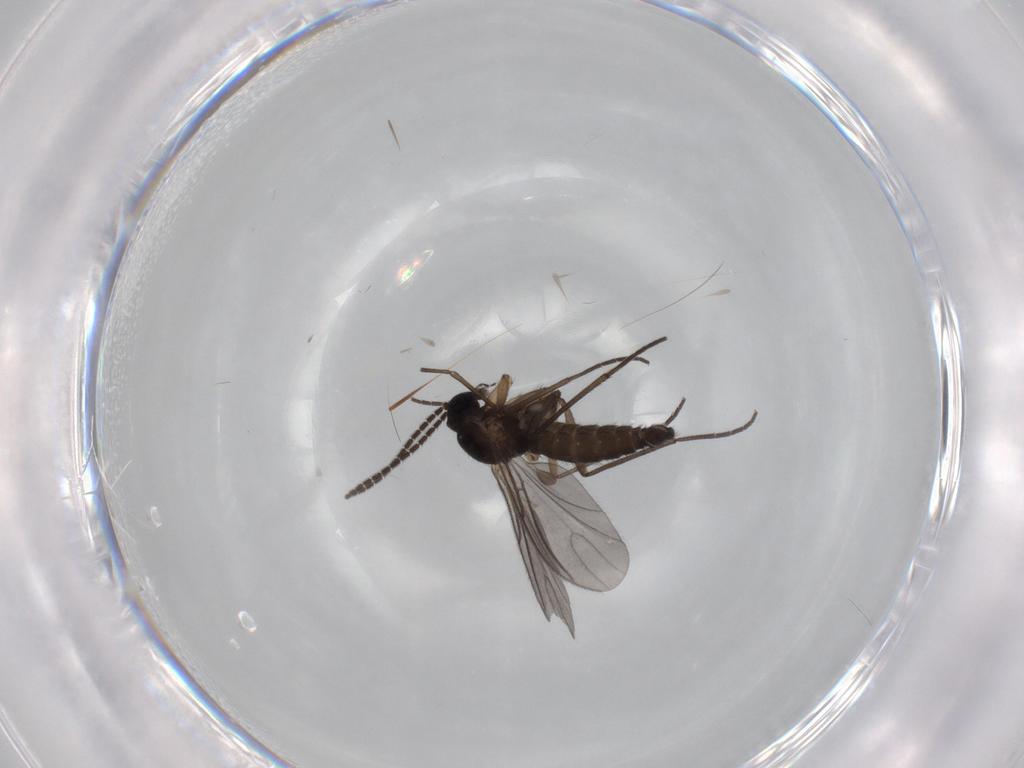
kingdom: Animalia
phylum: Arthropoda
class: Insecta
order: Diptera
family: Sciaridae
